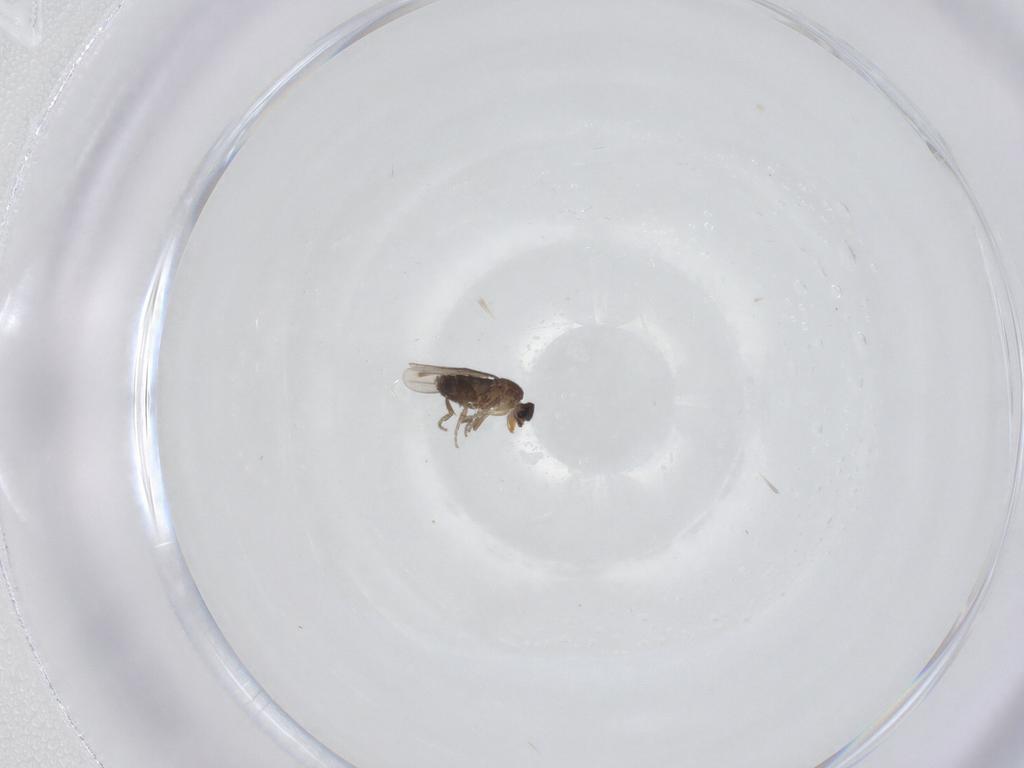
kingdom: Animalia
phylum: Arthropoda
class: Insecta
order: Diptera
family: Phoridae
